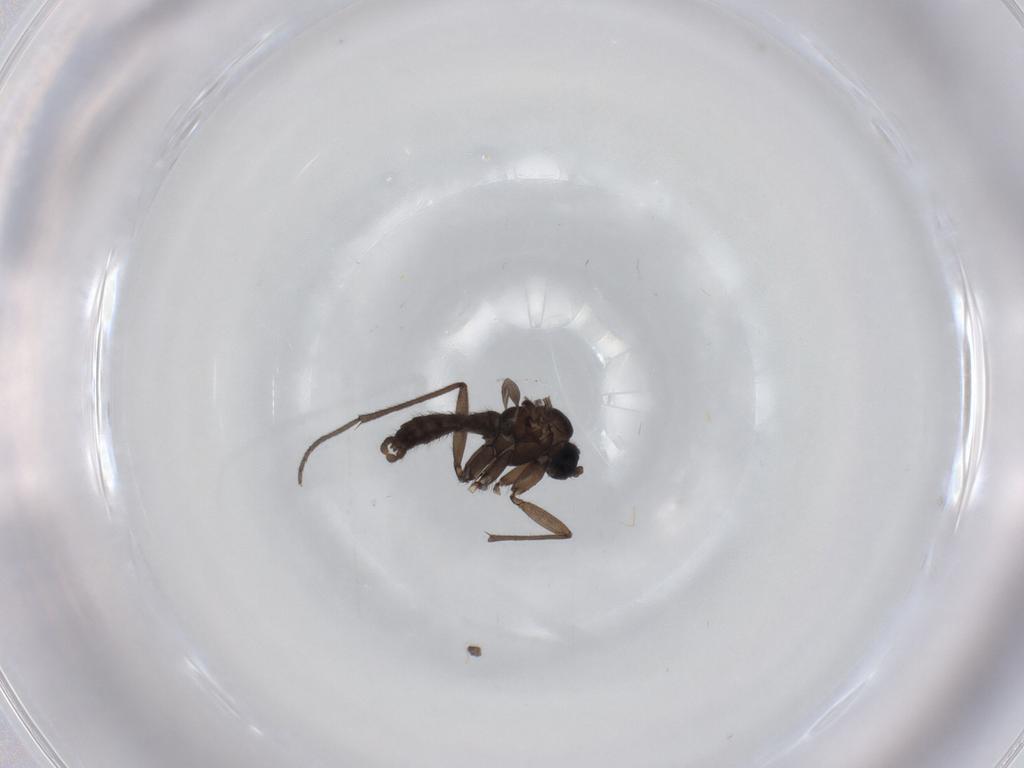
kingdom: Animalia
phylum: Arthropoda
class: Insecta
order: Diptera
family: Sciaridae
